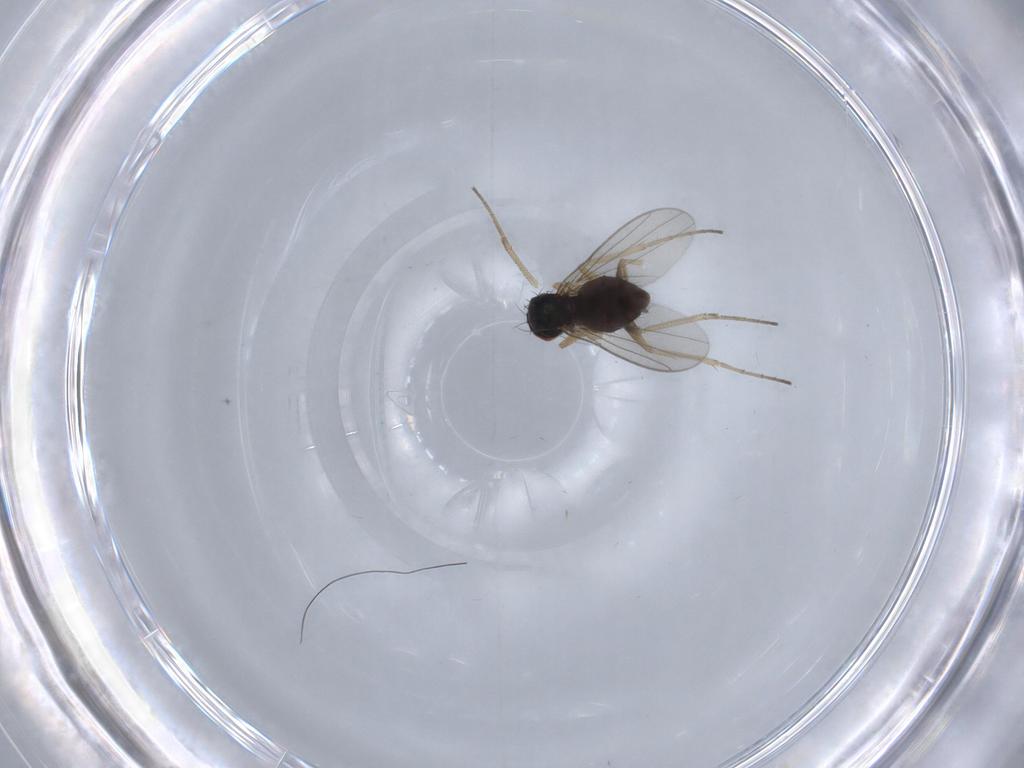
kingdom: Animalia
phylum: Arthropoda
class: Insecta
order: Diptera
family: Dolichopodidae
